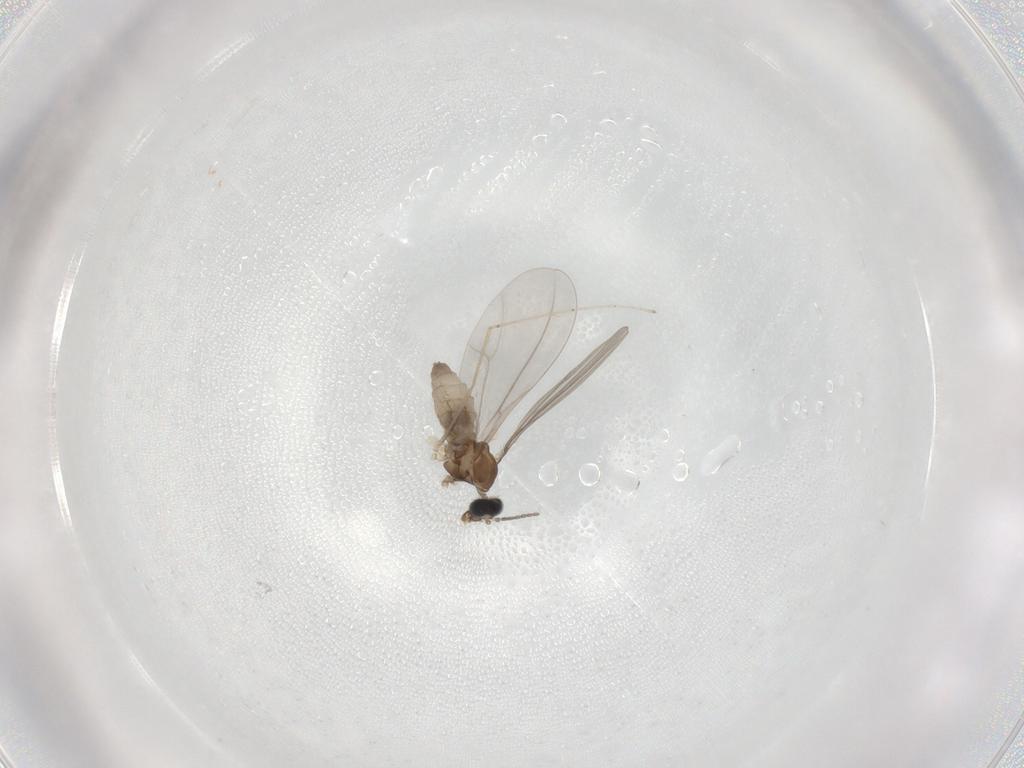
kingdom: Animalia
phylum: Arthropoda
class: Insecta
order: Diptera
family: Cecidomyiidae
